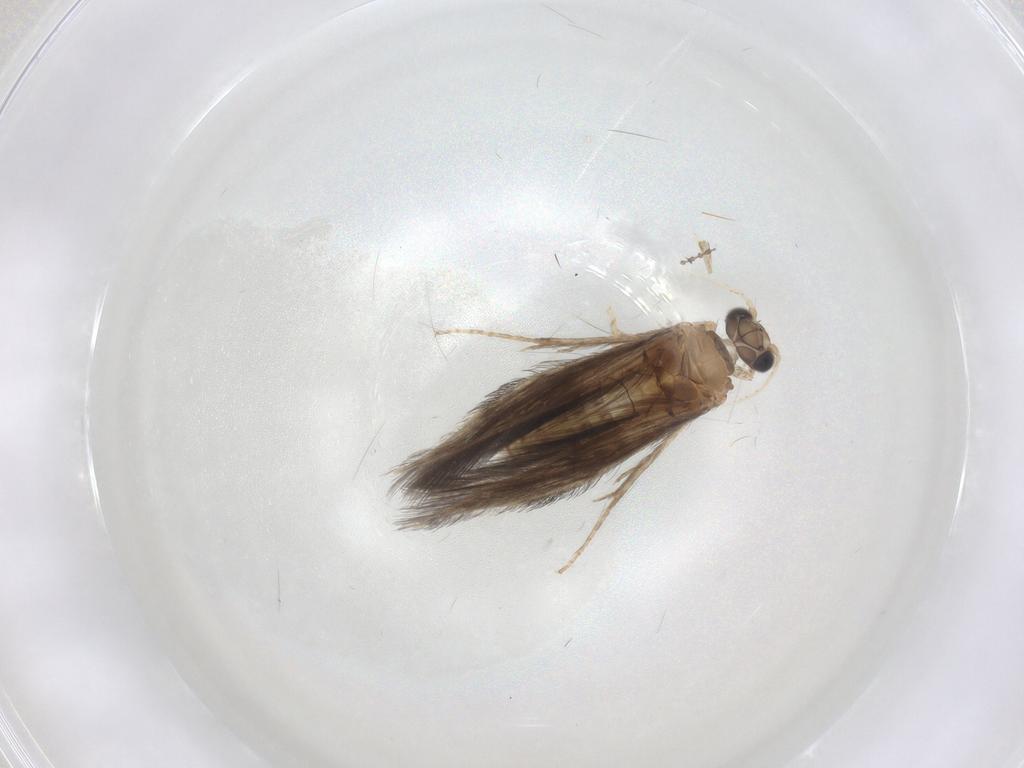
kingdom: Animalia
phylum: Arthropoda
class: Insecta
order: Trichoptera
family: Hydroptilidae
